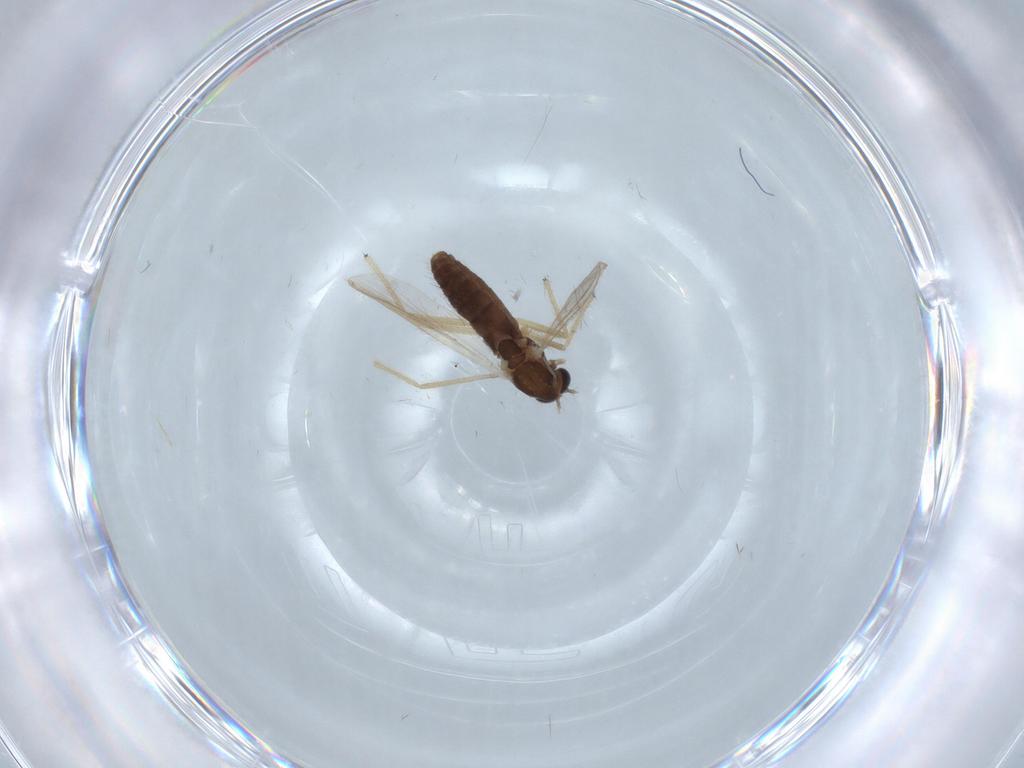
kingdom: Animalia
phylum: Arthropoda
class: Insecta
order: Diptera
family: Chironomidae
